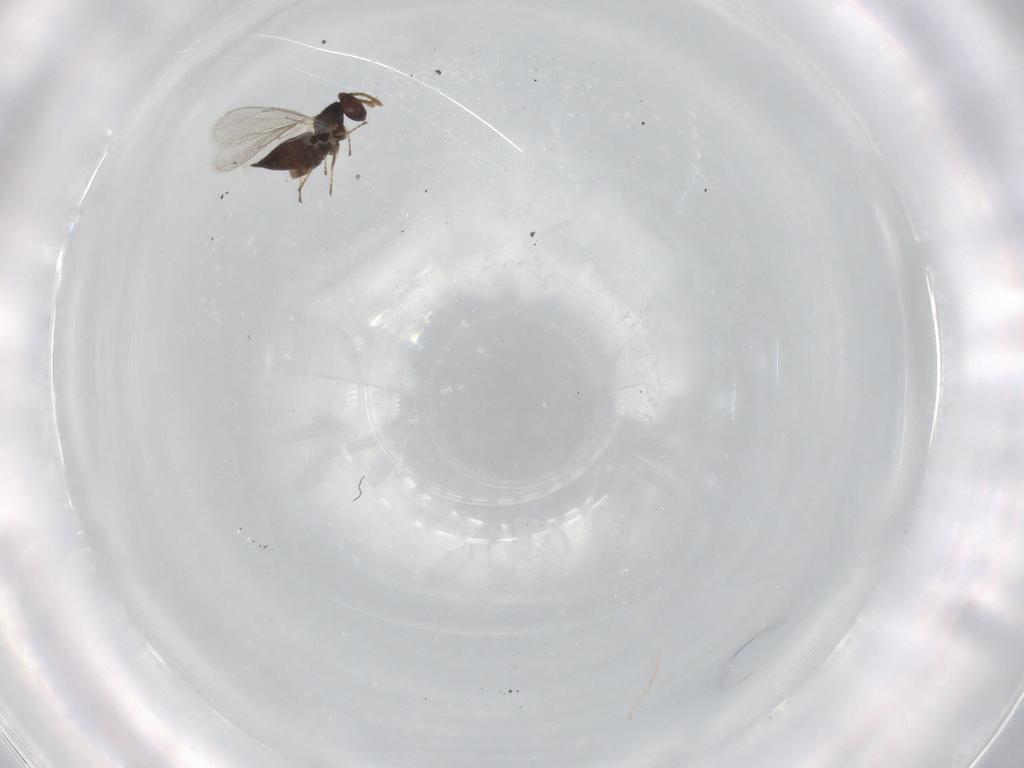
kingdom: Animalia
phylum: Arthropoda
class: Insecta
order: Hymenoptera
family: Eulophidae
